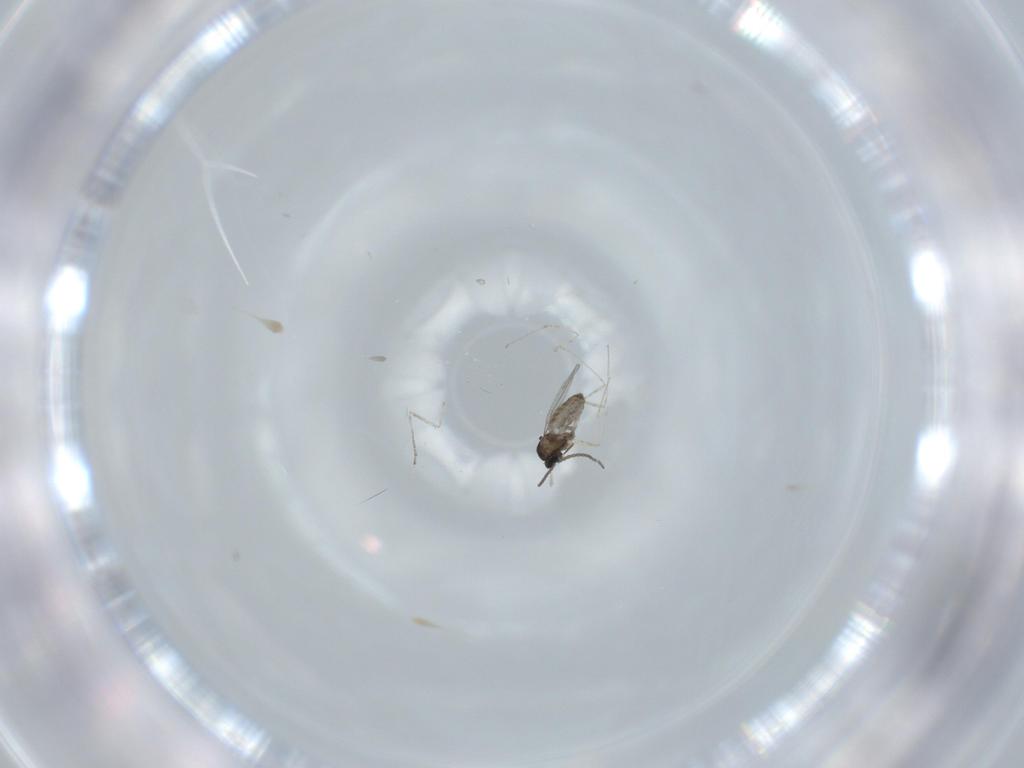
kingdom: Animalia
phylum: Arthropoda
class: Insecta
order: Diptera
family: Cecidomyiidae
